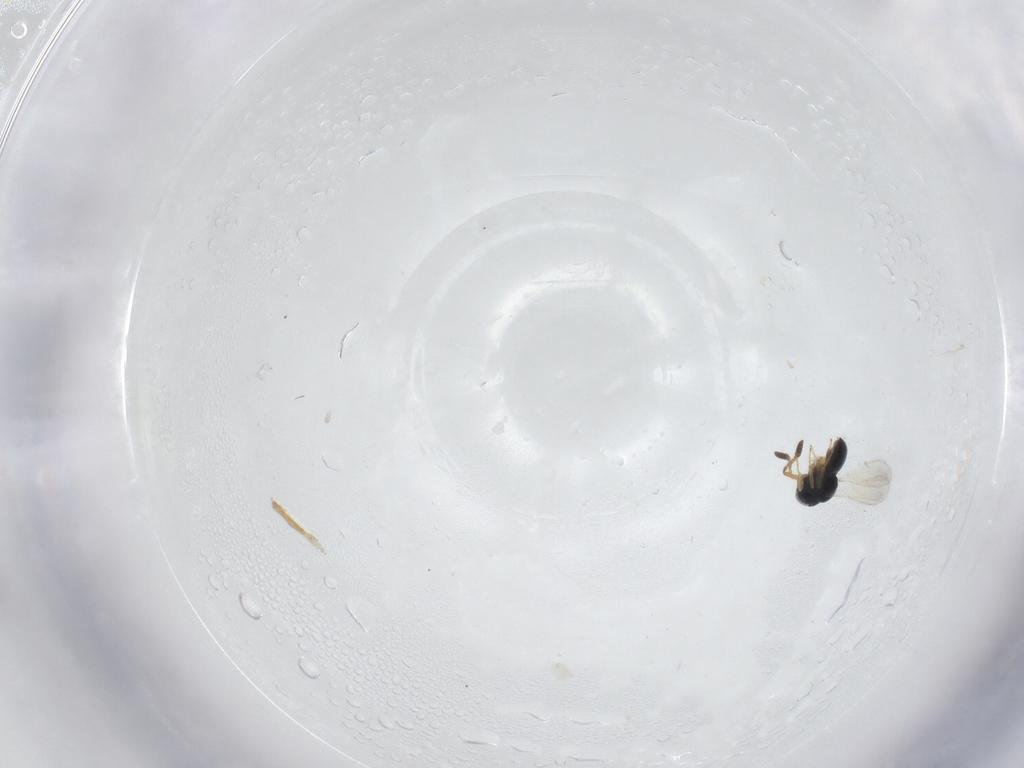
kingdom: Animalia
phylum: Arthropoda
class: Insecta
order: Hymenoptera
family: Scelionidae
